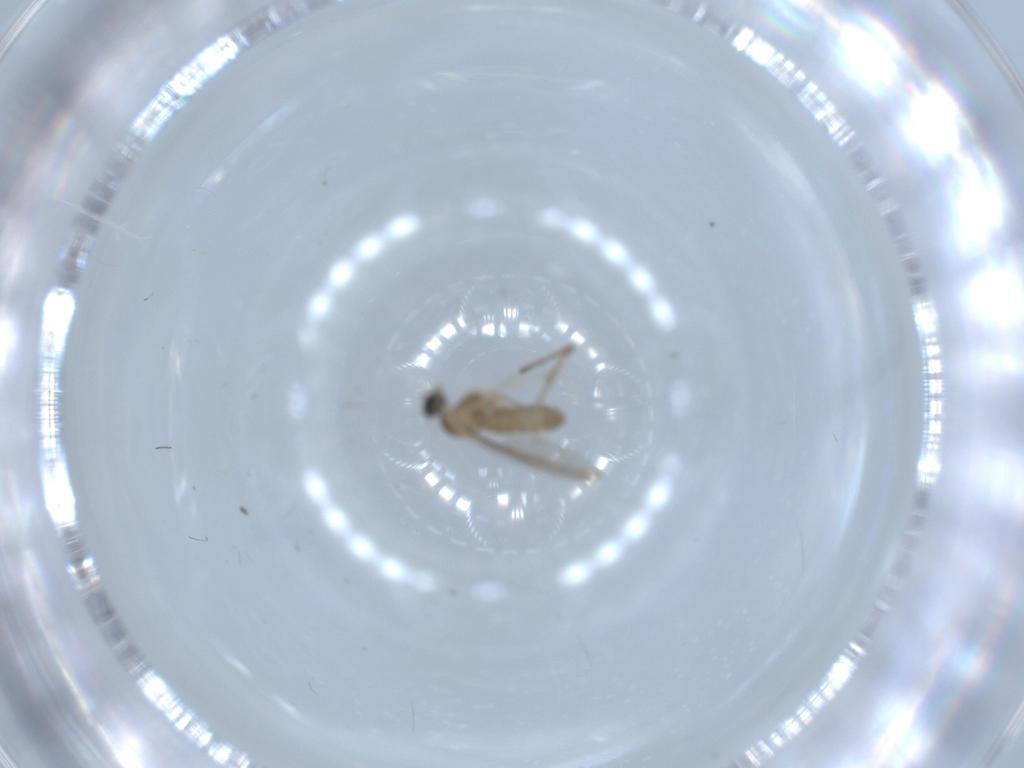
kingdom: Animalia
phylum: Arthropoda
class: Insecta
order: Diptera
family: Cecidomyiidae
